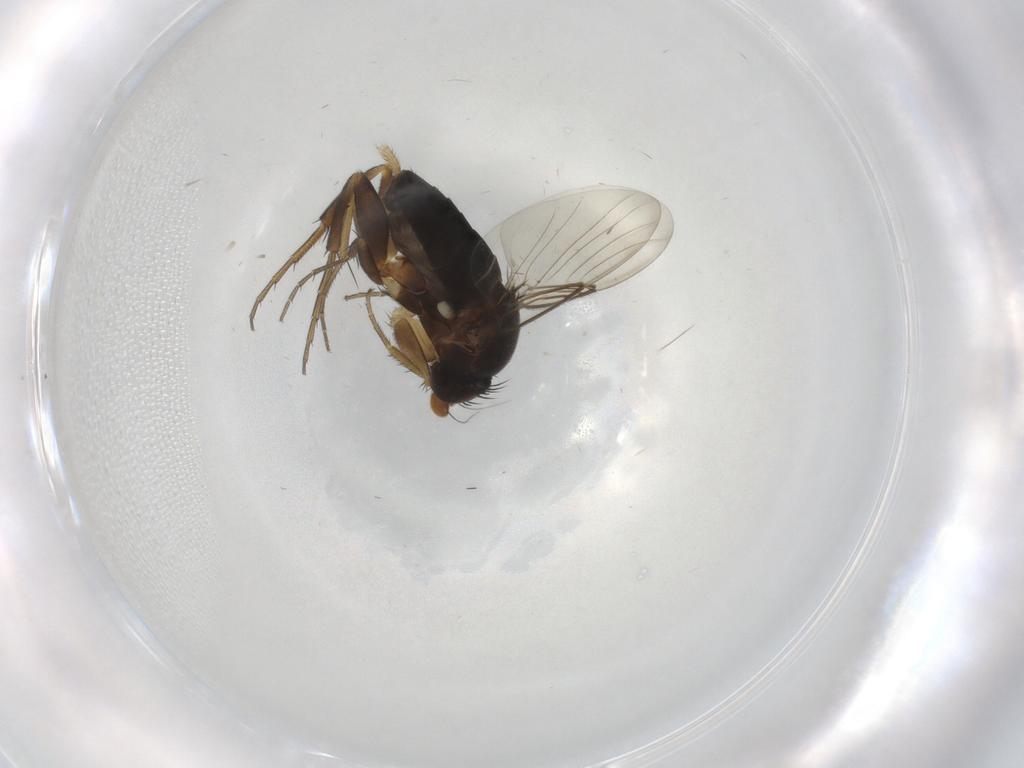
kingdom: Animalia
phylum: Arthropoda
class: Insecta
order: Diptera
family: Phoridae
